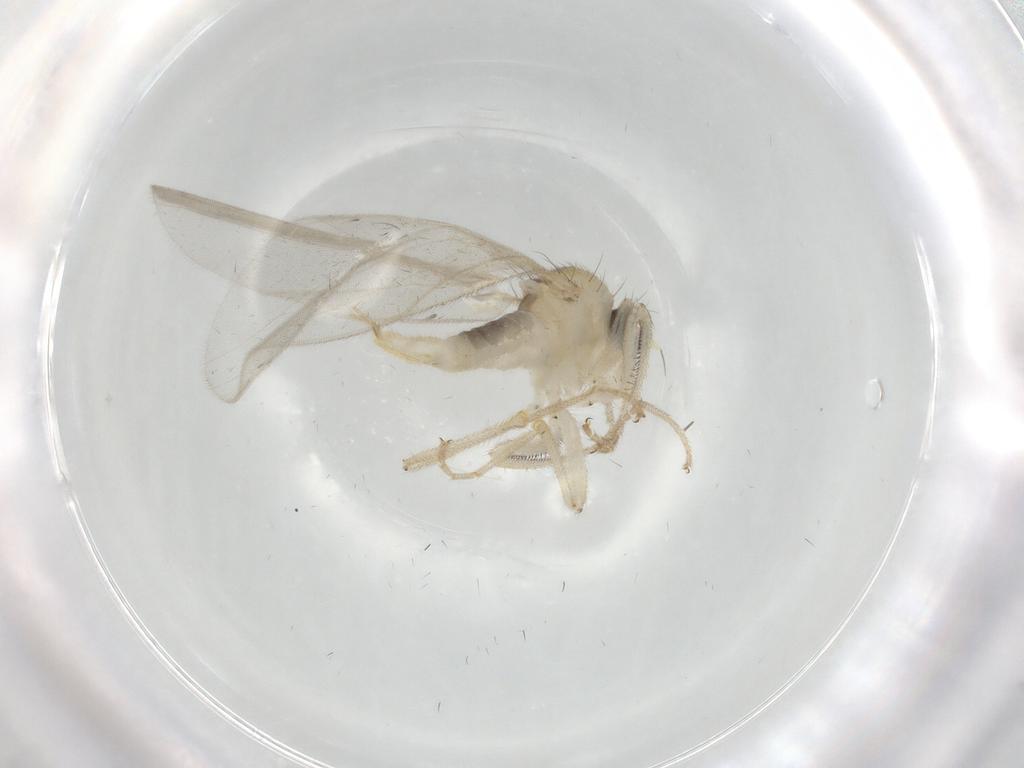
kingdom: Animalia
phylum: Arthropoda
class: Insecta
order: Diptera
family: Hybotidae
